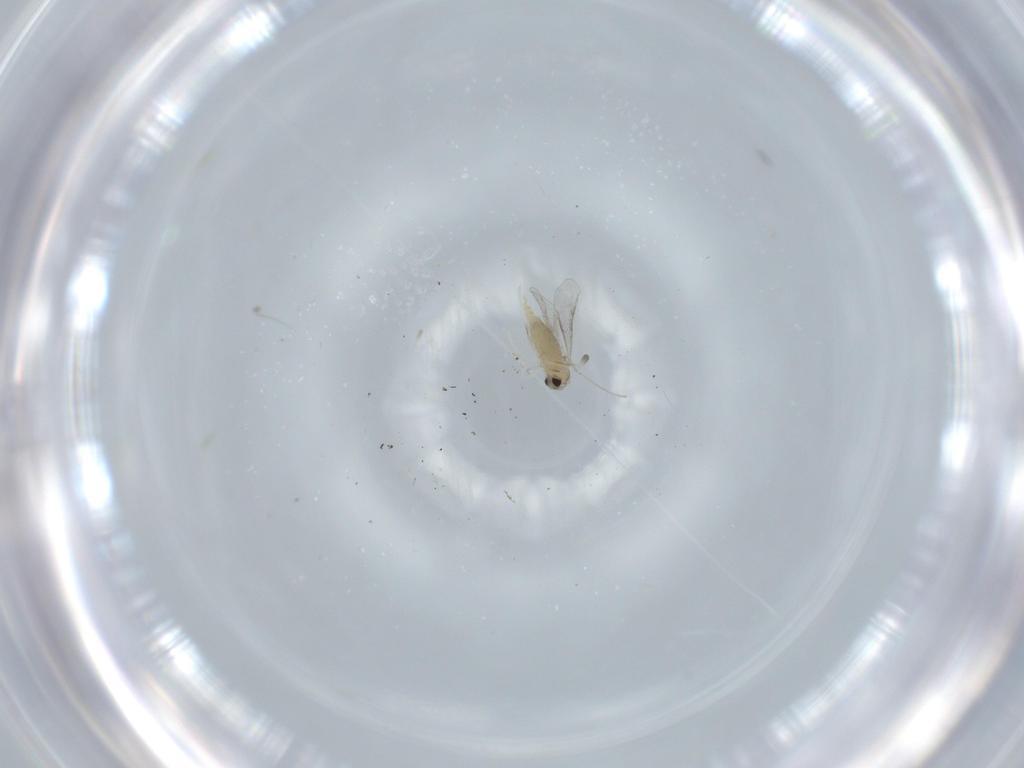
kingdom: Animalia
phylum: Arthropoda
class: Insecta
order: Diptera
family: Cecidomyiidae
